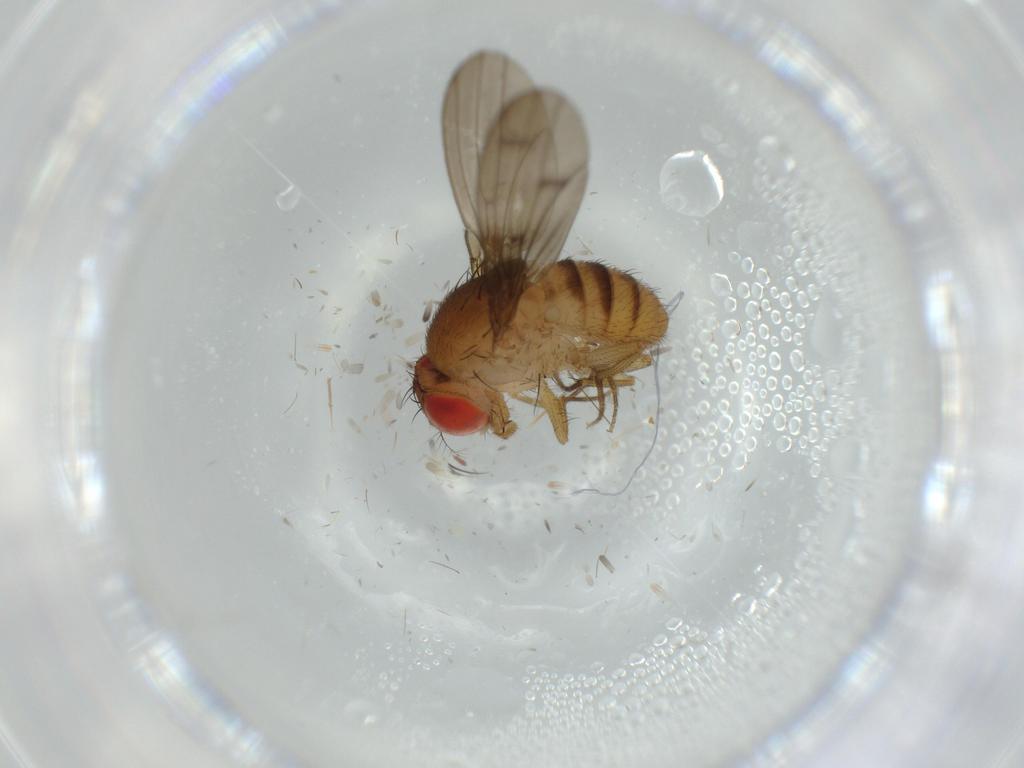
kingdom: Animalia
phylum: Arthropoda
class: Insecta
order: Diptera
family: Drosophilidae
